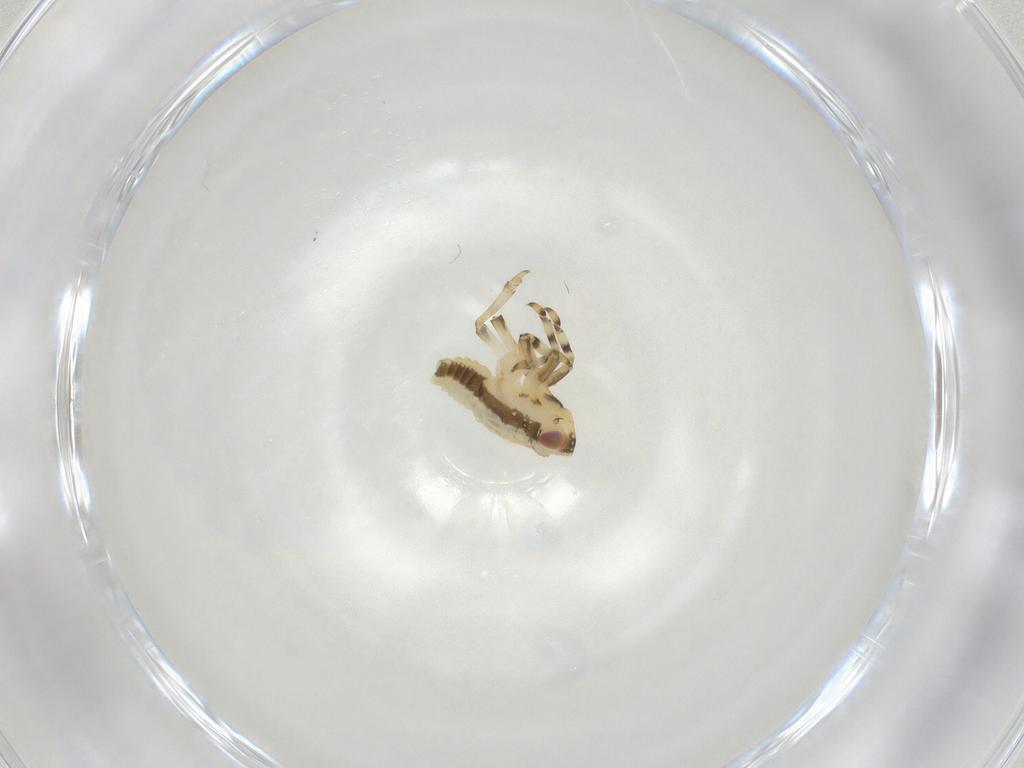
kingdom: Animalia
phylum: Arthropoda
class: Insecta
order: Hemiptera
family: Issidae
